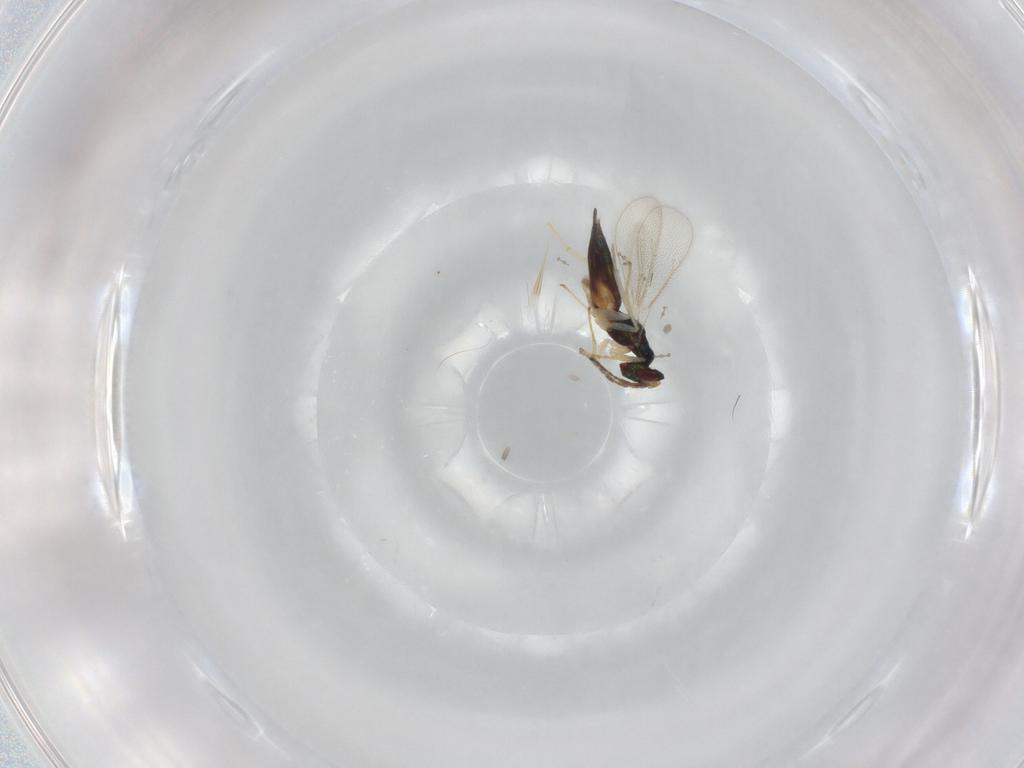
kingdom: Animalia
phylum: Arthropoda
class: Insecta
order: Hymenoptera
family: Eulophidae
